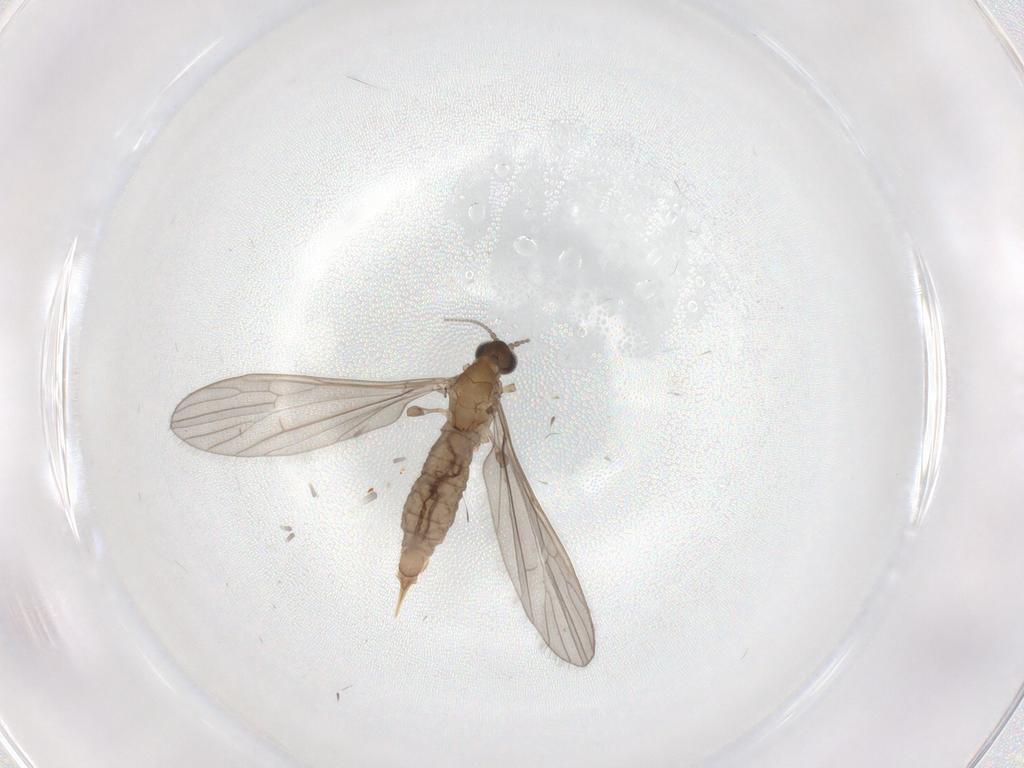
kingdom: Animalia
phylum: Arthropoda
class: Insecta
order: Diptera
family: Limoniidae
